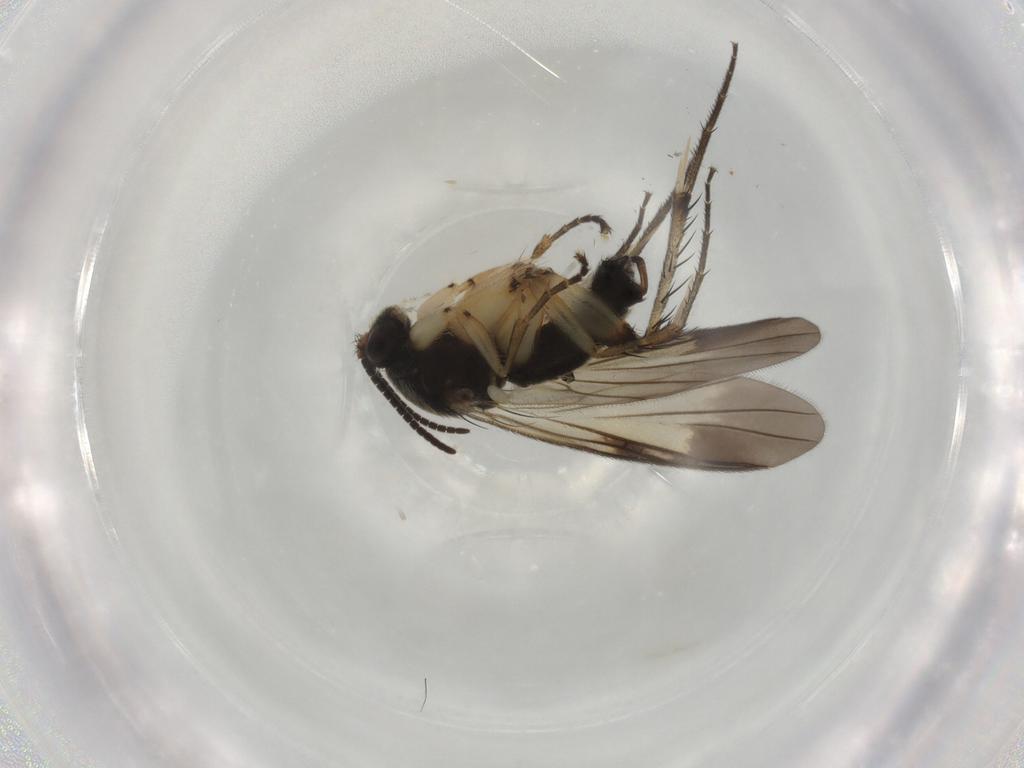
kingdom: Animalia
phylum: Arthropoda
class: Insecta
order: Diptera
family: Mycetophilidae
